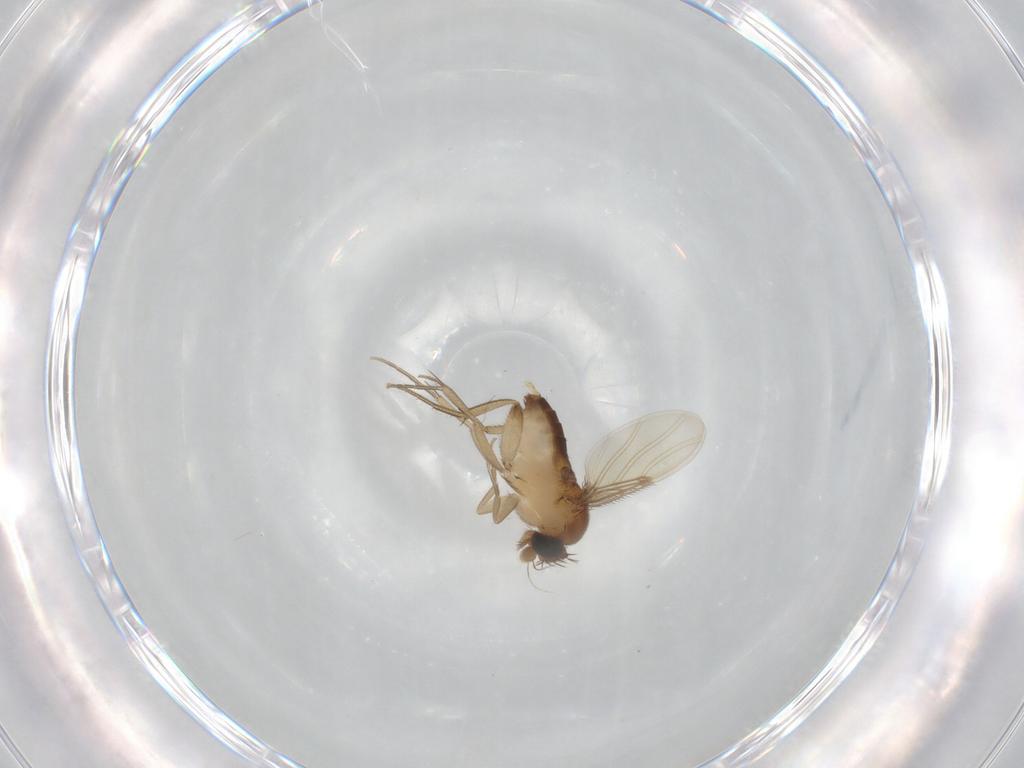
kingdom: Animalia
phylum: Arthropoda
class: Insecta
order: Diptera
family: Phoridae
